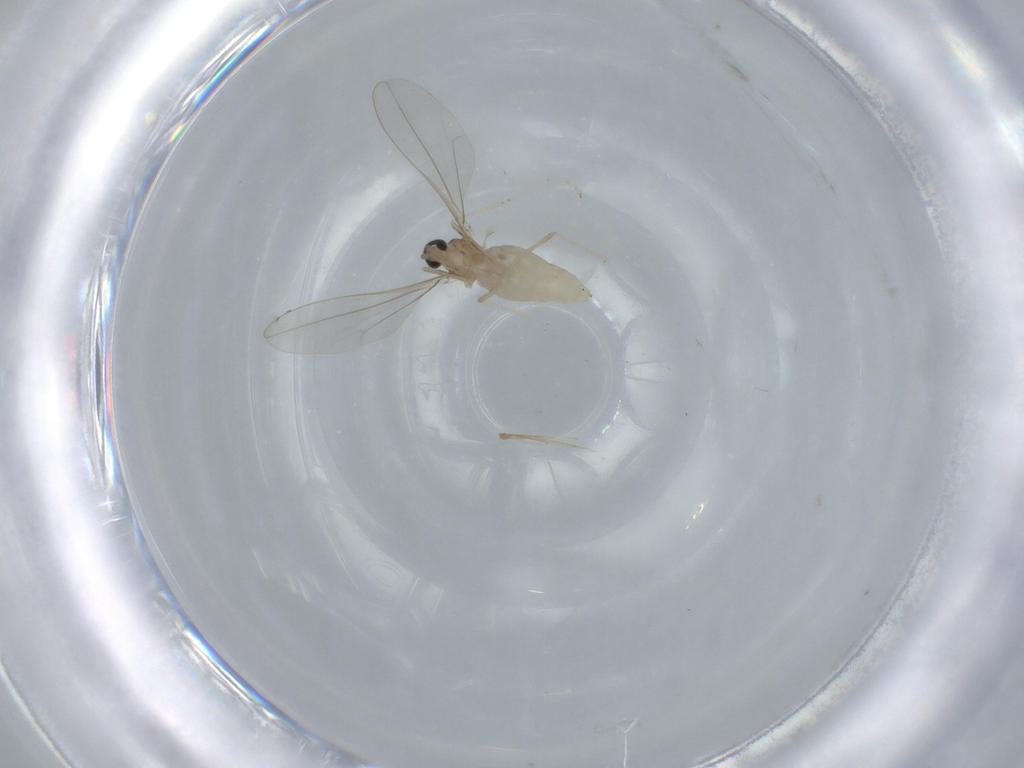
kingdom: Animalia
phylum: Arthropoda
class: Insecta
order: Diptera
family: Cecidomyiidae
